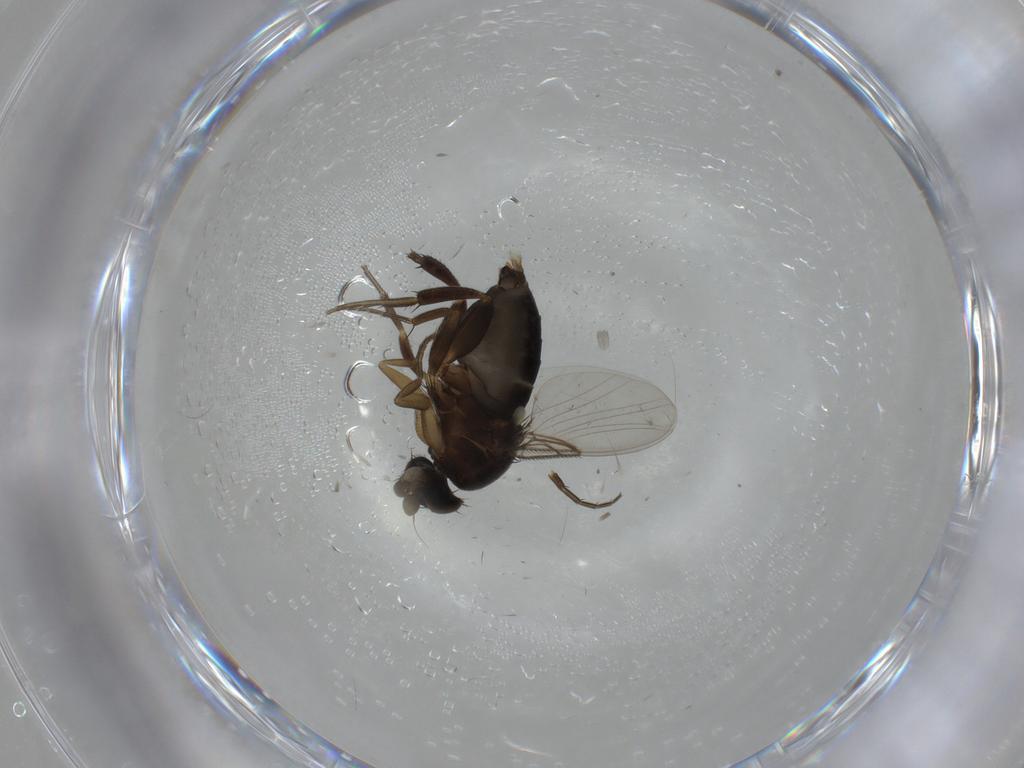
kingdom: Animalia
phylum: Arthropoda
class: Insecta
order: Diptera
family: Phoridae
